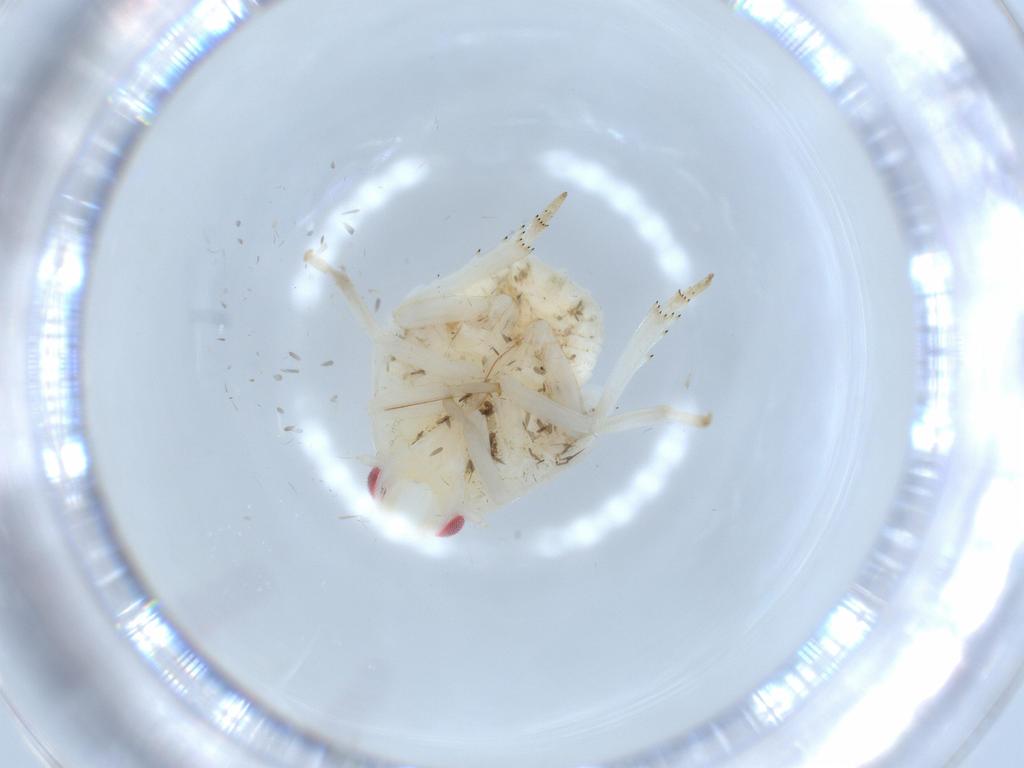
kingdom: Animalia
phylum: Arthropoda
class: Insecta
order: Hemiptera
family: Flatidae
